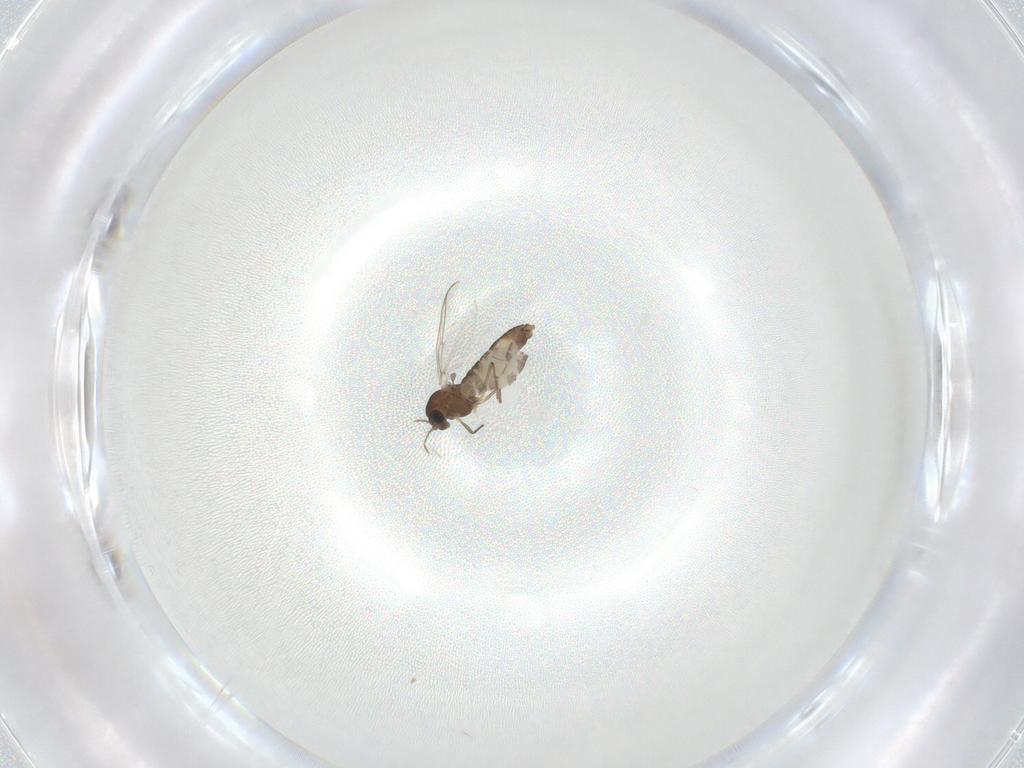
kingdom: Animalia
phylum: Arthropoda
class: Insecta
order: Diptera
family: Chironomidae
